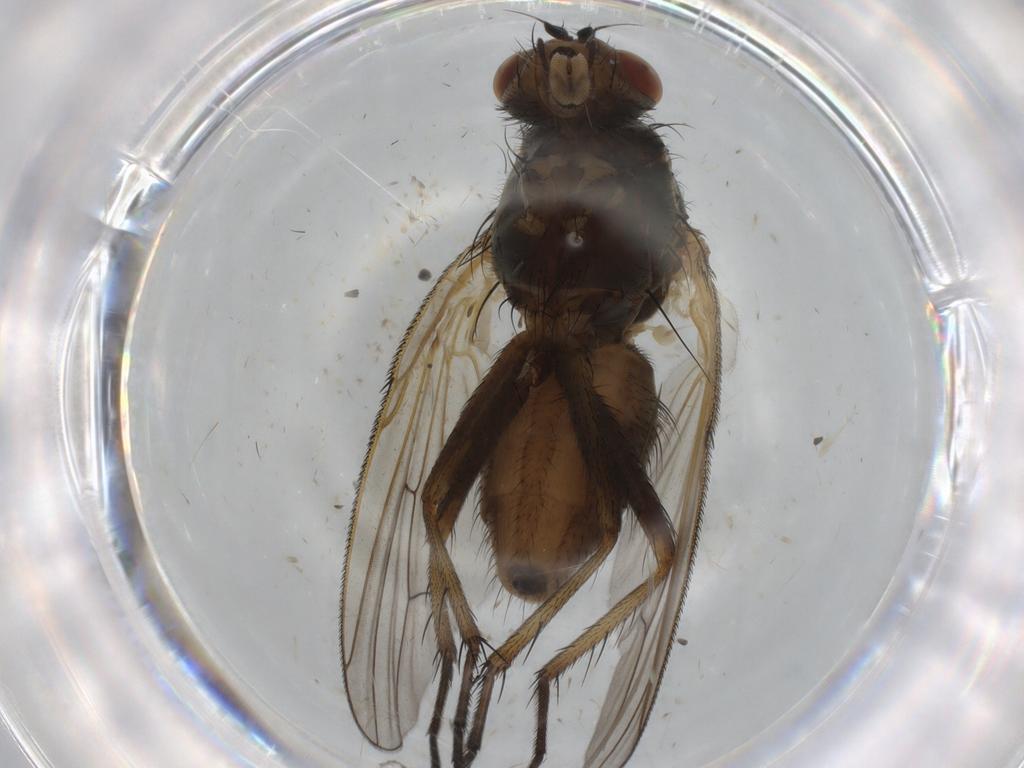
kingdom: Animalia
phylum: Arthropoda
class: Insecta
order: Diptera
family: Anthomyiidae
